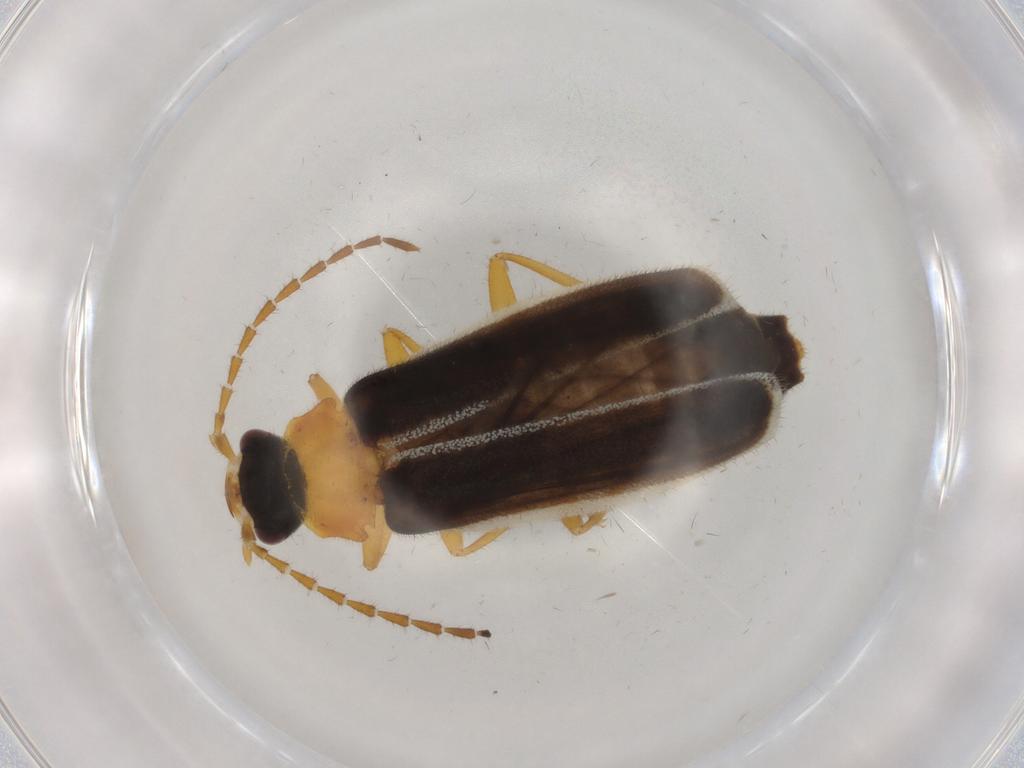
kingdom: Animalia
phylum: Arthropoda
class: Insecta
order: Coleoptera
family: Cantharidae
